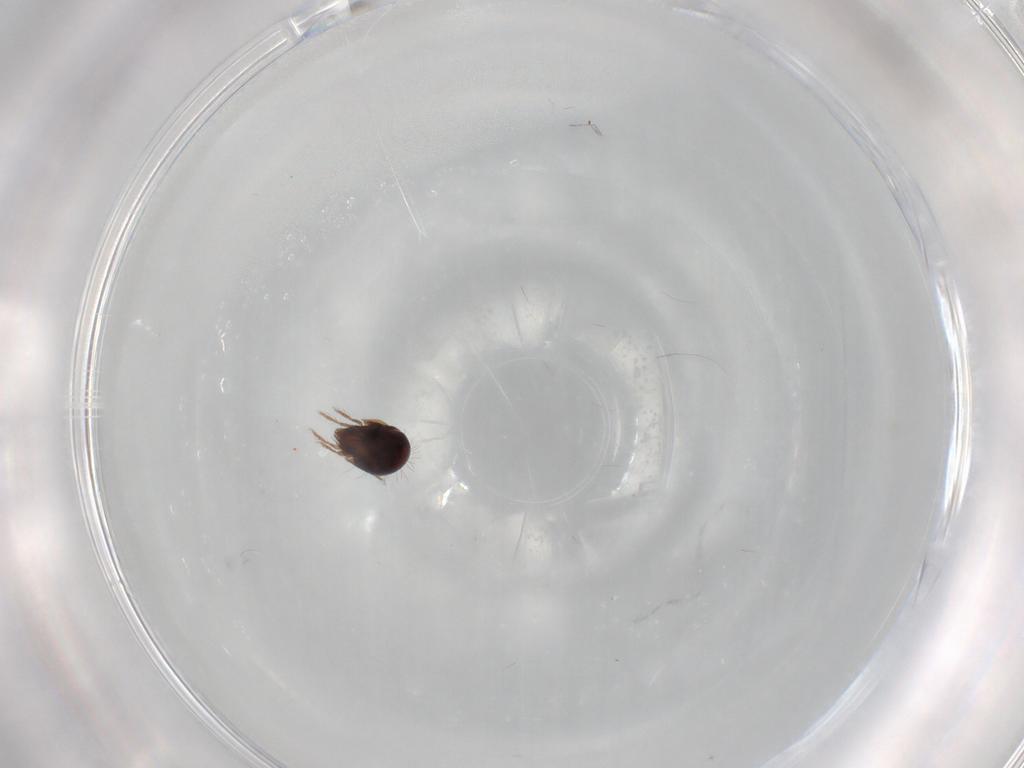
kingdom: Animalia
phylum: Arthropoda
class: Arachnida
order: Sarcoptiformes
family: Humerobatidae
